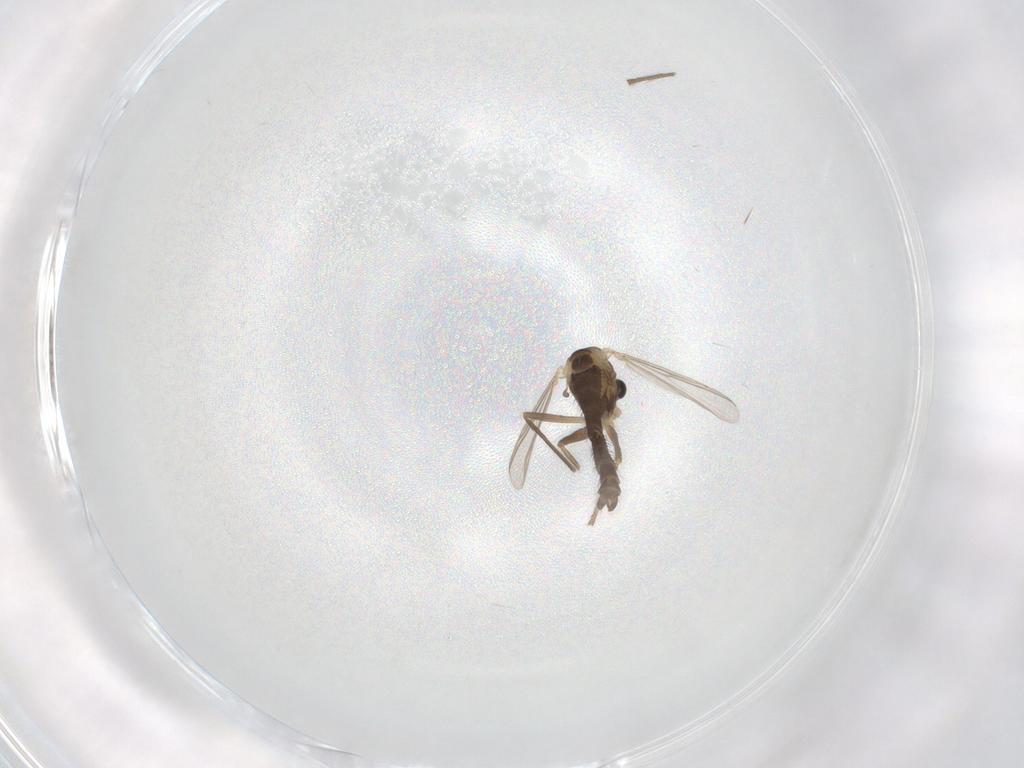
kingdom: Animalia
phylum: Arthropoda
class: Insecta
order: Diptera
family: Chironomidae
